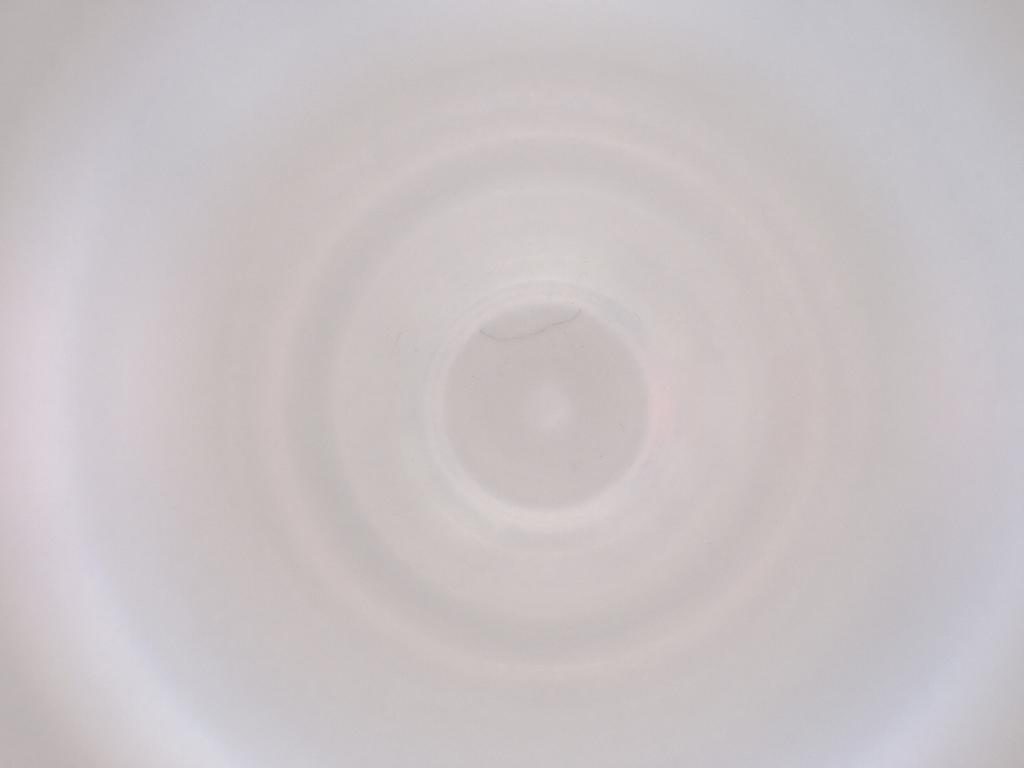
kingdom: Animalia
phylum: Arthropoda
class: Insecta
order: Diptera
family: Cecidomyiidae
